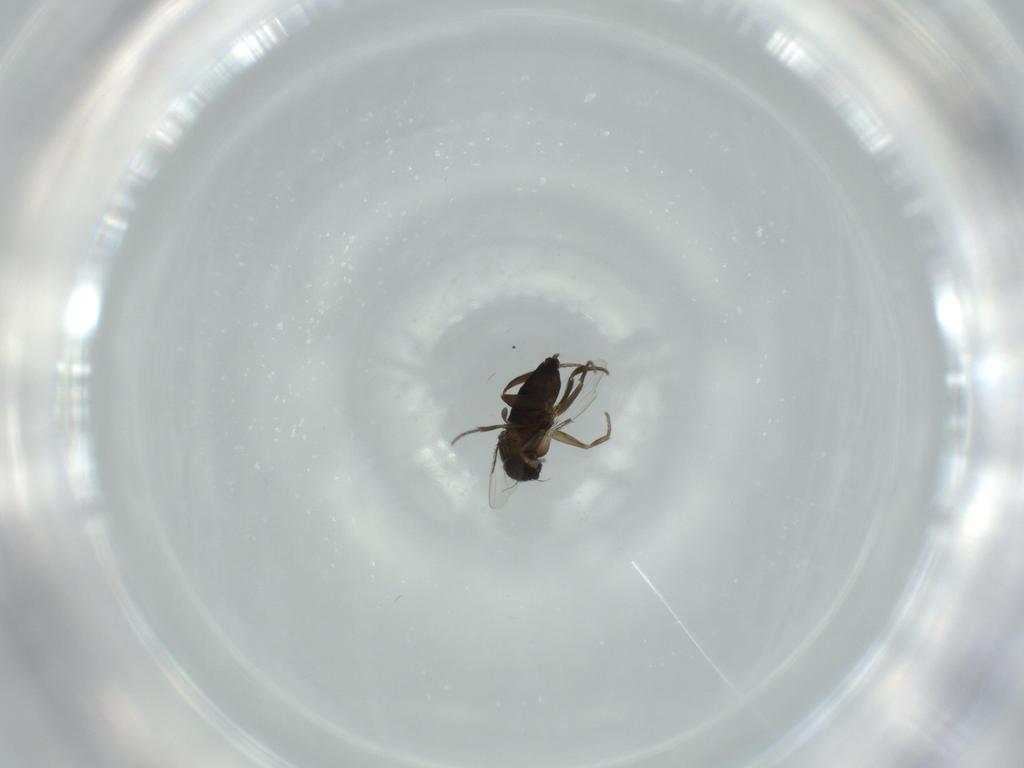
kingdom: Animalia
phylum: Arthropoda
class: Insecta
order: Diptera
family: Phoridae
